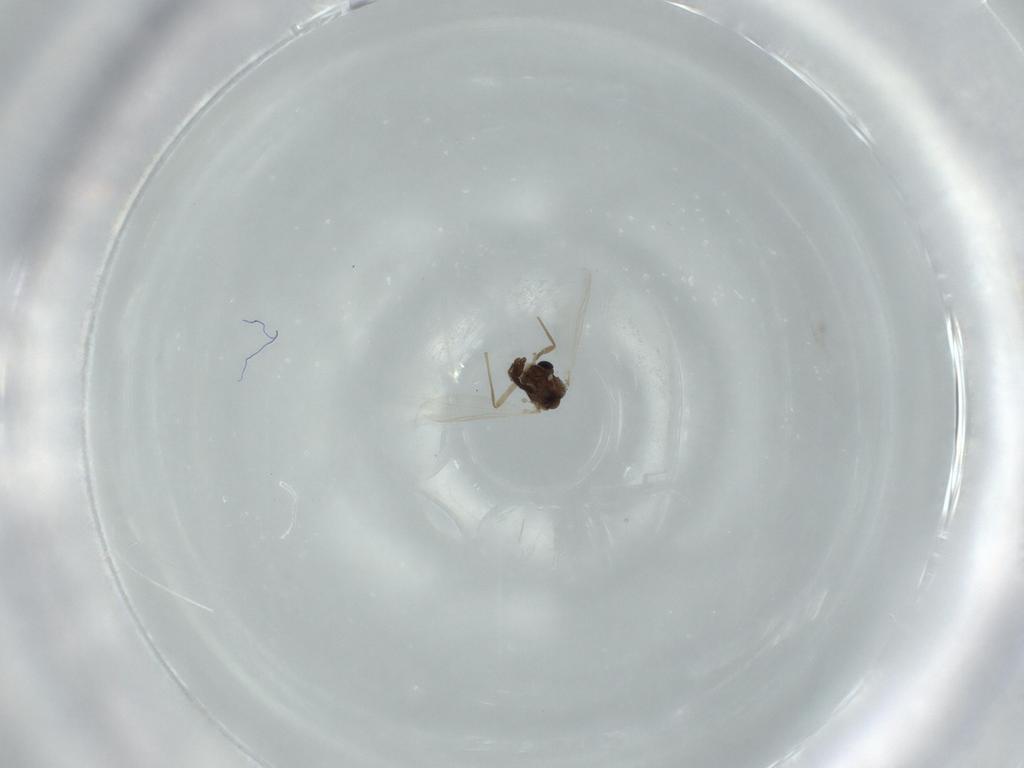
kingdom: Animalia
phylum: Arthropoda
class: Insecta
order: Diptera
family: Chironomidae
